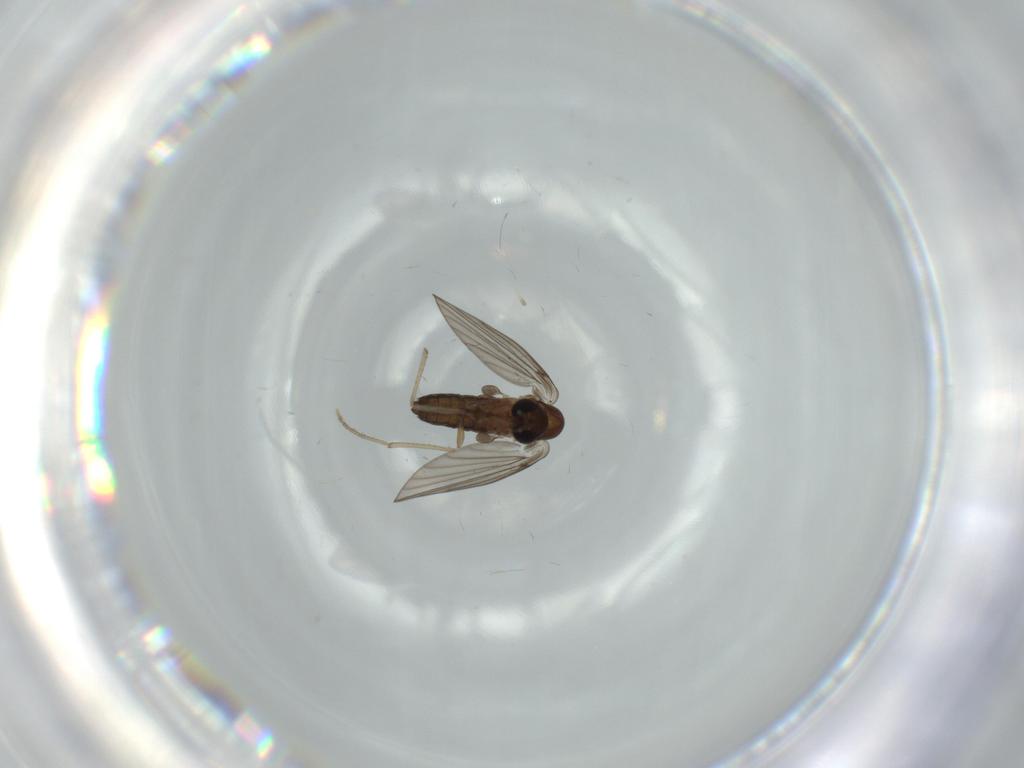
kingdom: Animalia
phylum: Arthropoda
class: Insecta
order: Diptera
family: Psychodidae
